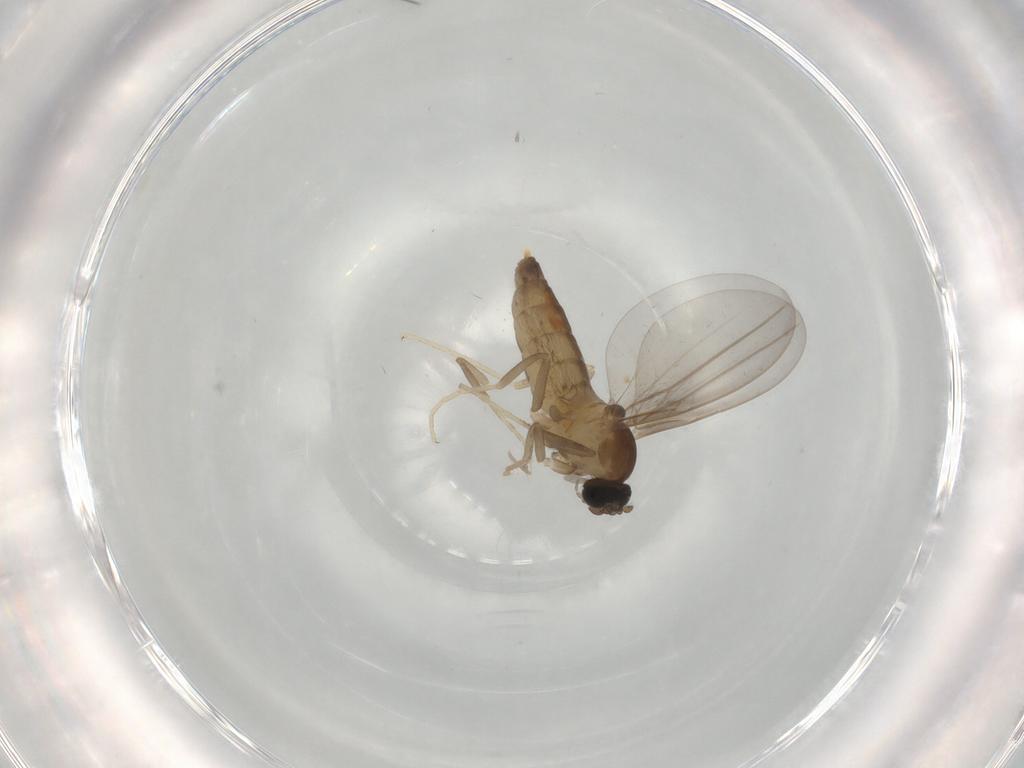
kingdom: Animalia
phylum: Arthropoda
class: Insecta
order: Diptera
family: Cecidomyiidae
